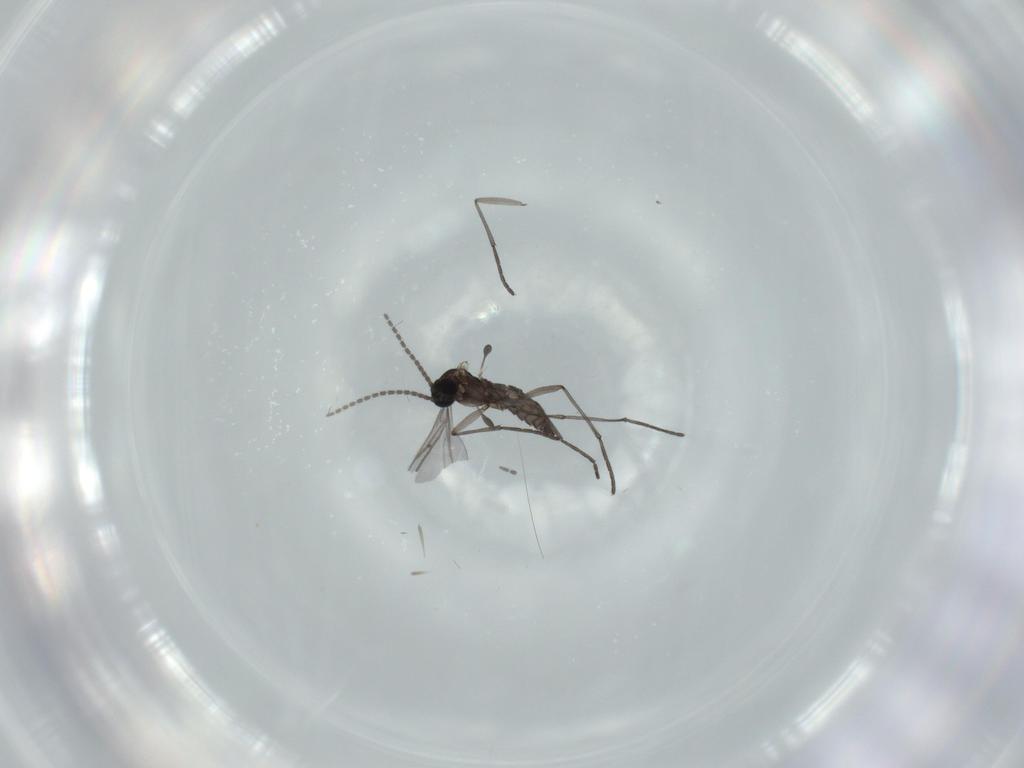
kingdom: Animalia
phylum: Arthropoda
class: Insecta
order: Diptera
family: Sciaridae
